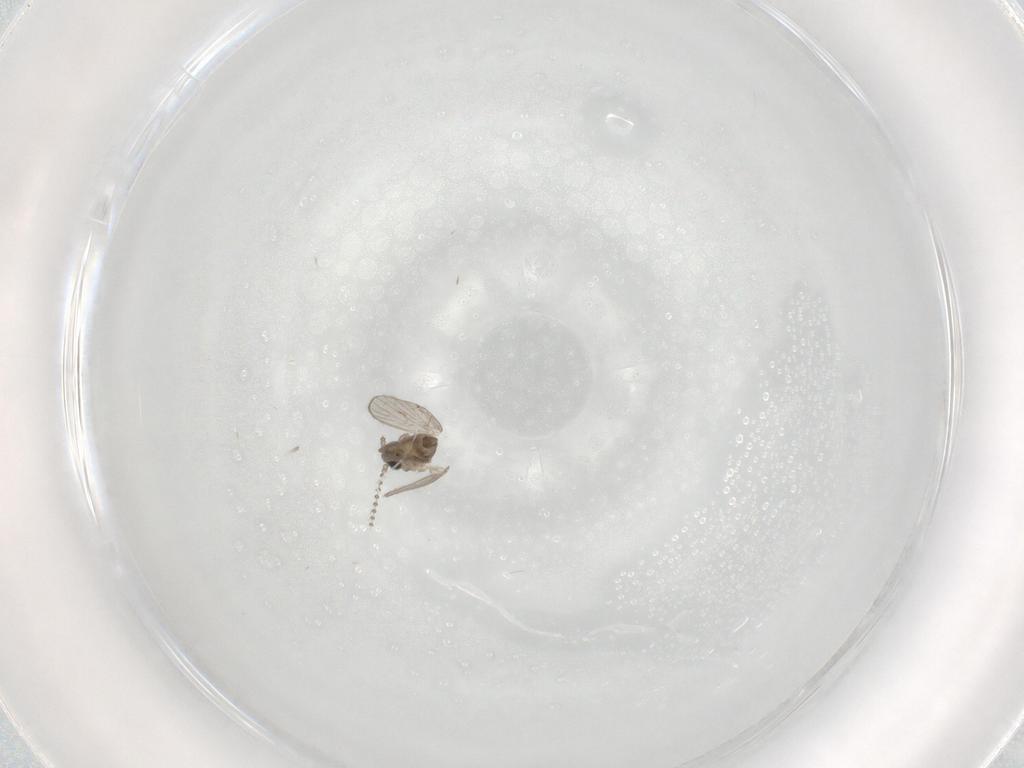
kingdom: Animalia
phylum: Arthropoda
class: Insecta
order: Diptera
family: Psychodidae
